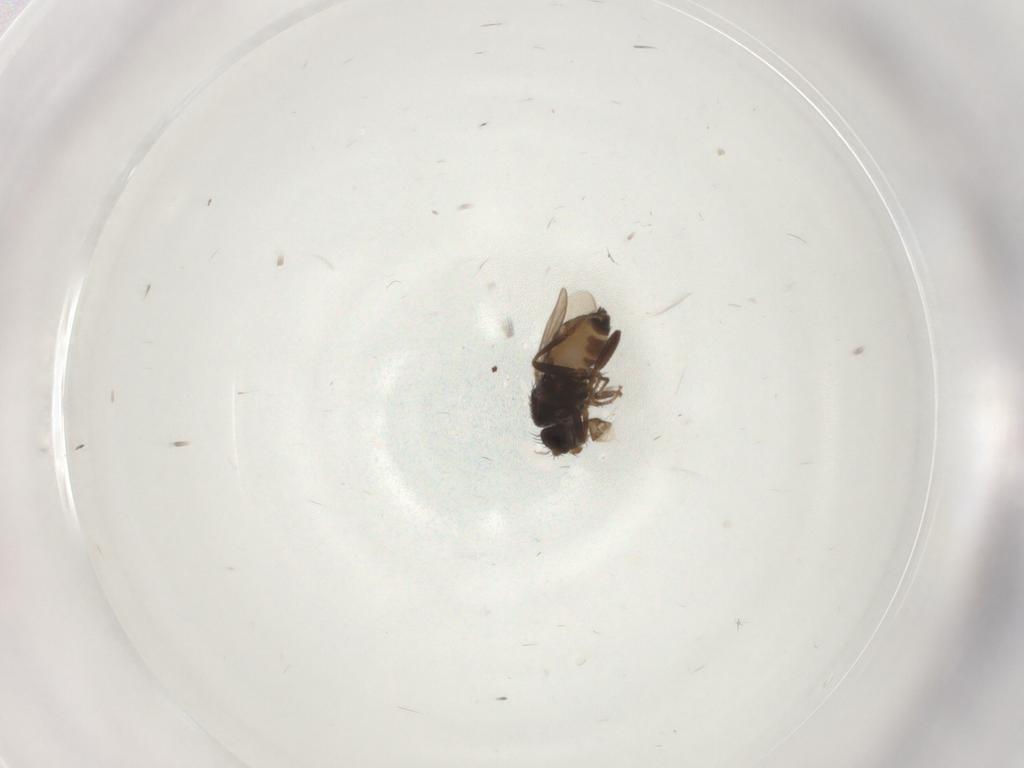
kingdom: Animalia
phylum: Arthropoda
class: Insecta
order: Diptera
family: Sphaeroceridae
